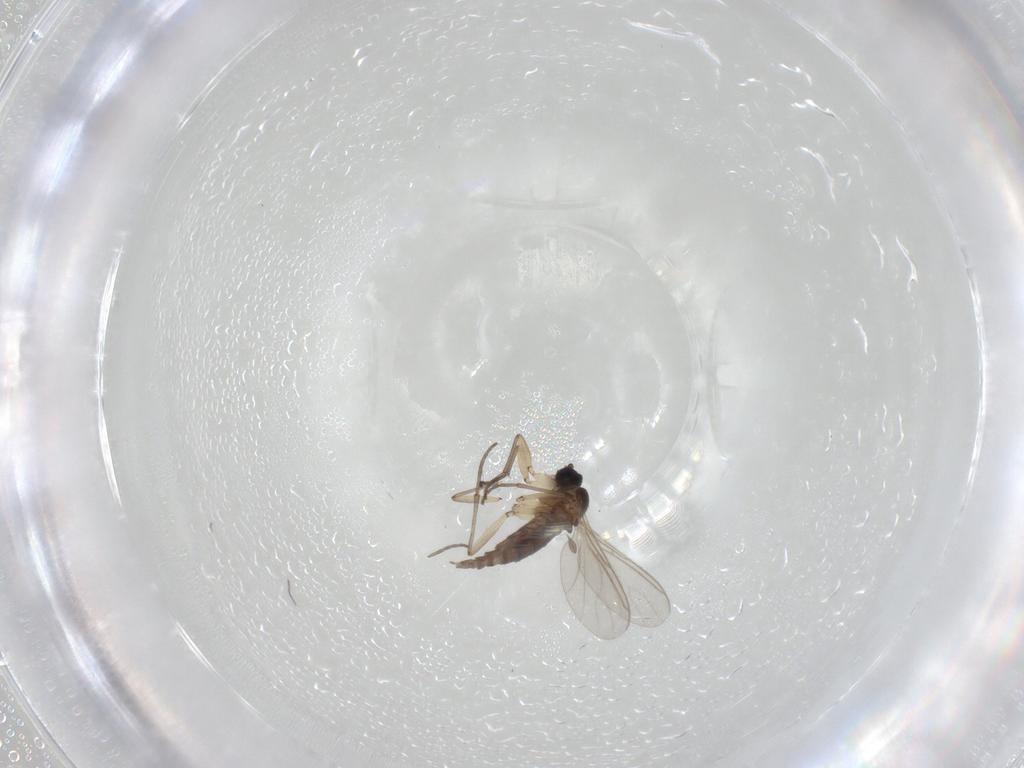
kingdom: Animalia
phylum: Arthropoda
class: Insecta
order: Diptera
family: Sciaridae
